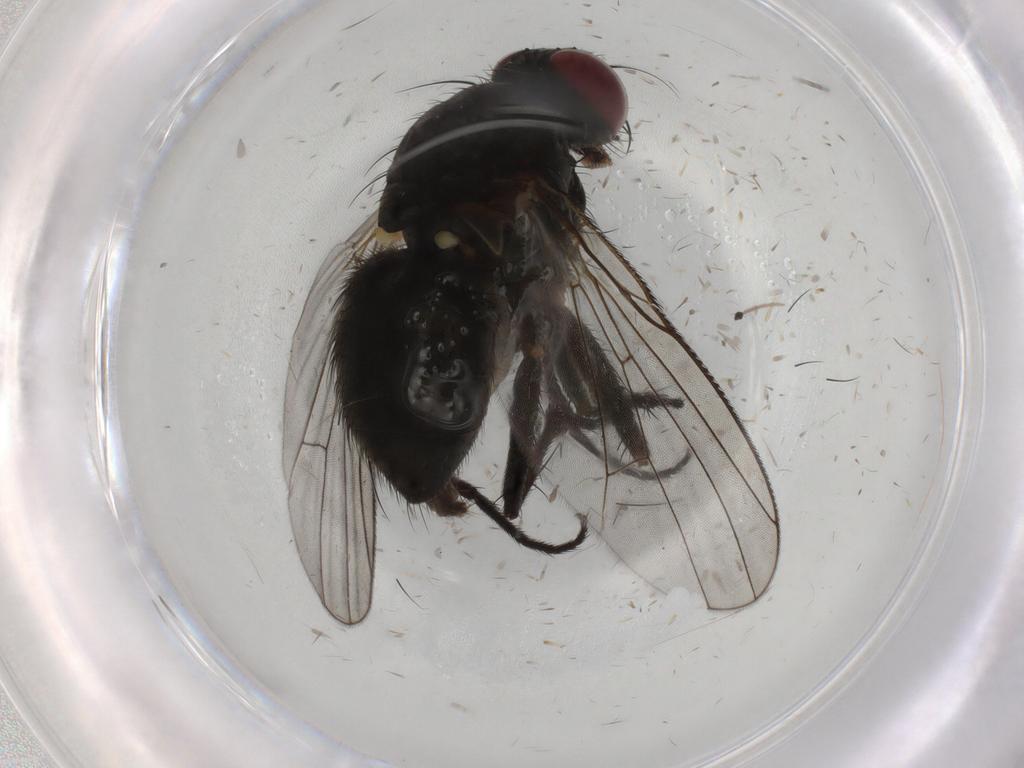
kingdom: Animalia
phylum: Arthropoda
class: Insecta
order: Diptera
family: Muscidae
